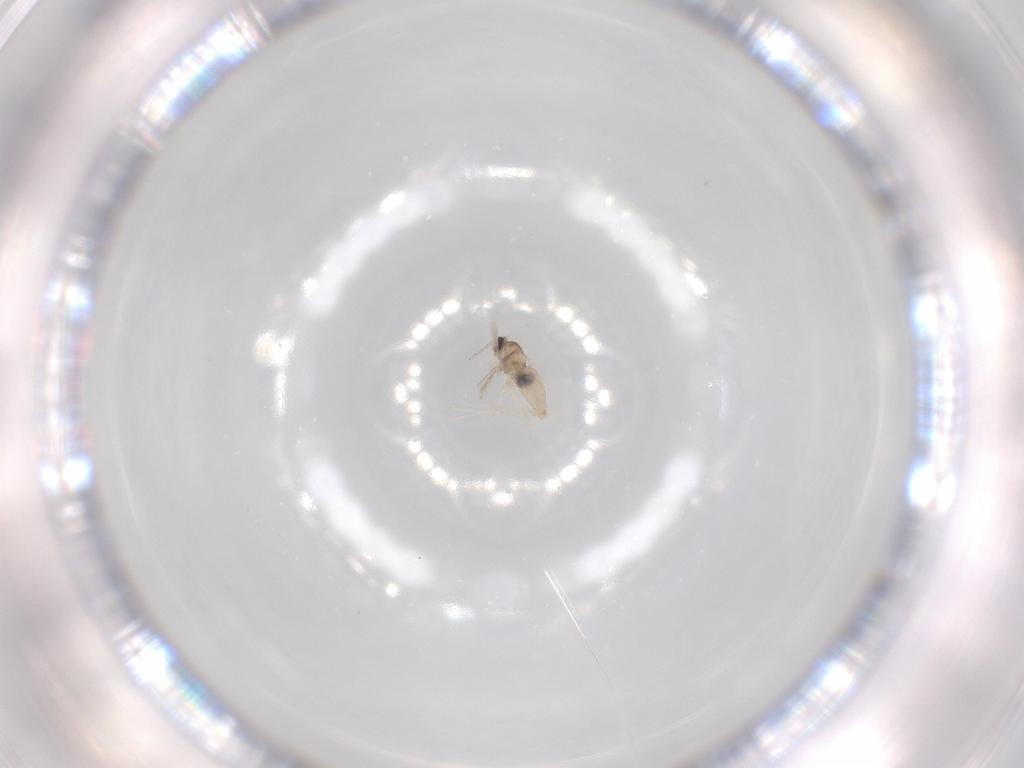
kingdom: Animalia
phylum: Arthropoda
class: Insecta
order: Diptera
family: Cecidomyiidae
